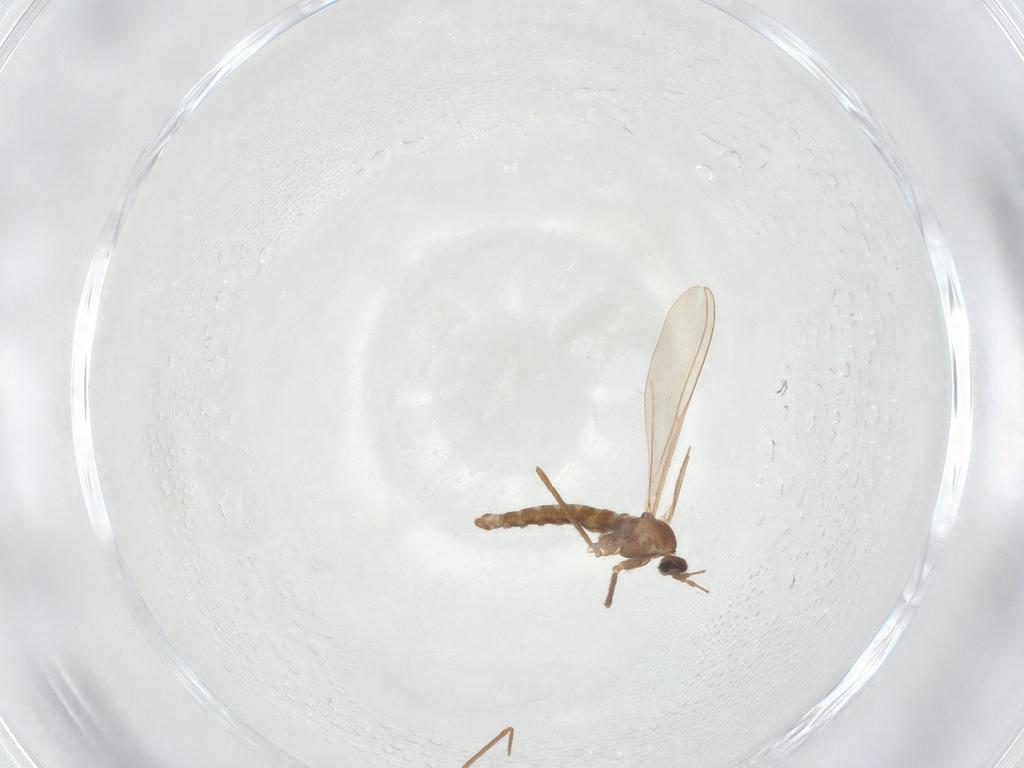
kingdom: Animalia
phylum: Arthropoda
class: Insecta
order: Diptera
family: Cecidomyiidae
